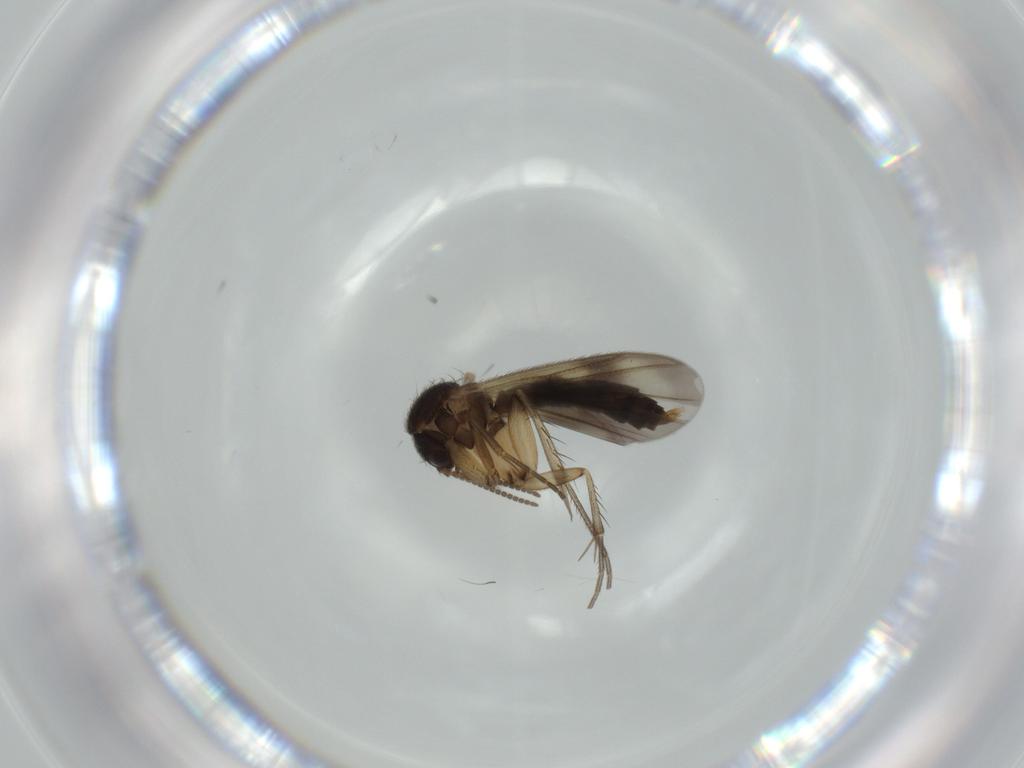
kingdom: Animalia
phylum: Arthropoda
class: Insecta
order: Diptera
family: Mycetophilidae
